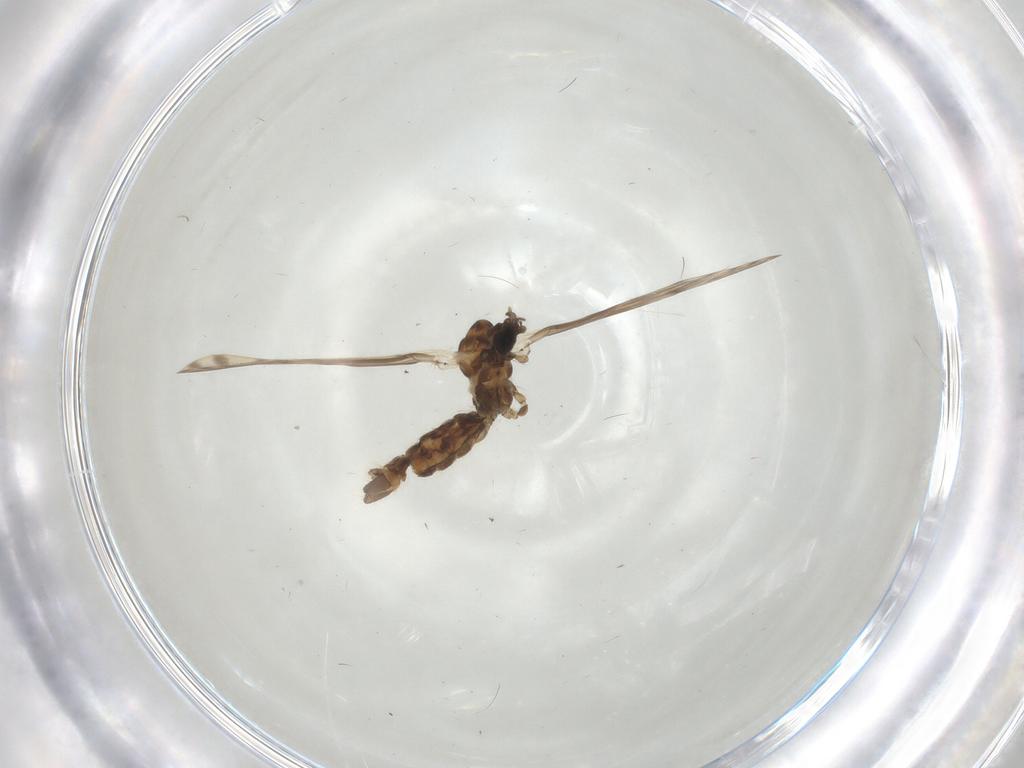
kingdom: Animalia
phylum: Arthropoda
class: Insecta
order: Diptera
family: Limoniidae
